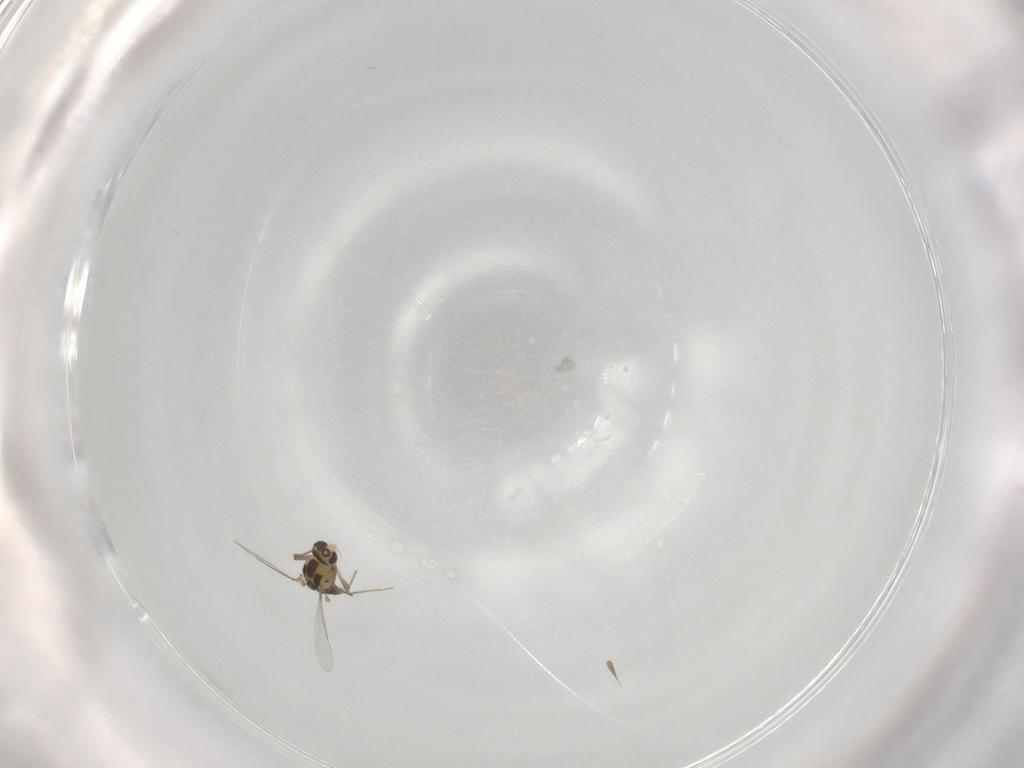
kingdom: Animalia
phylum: Arthropoda
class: Insecta
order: Diptera
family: Chironomidae
